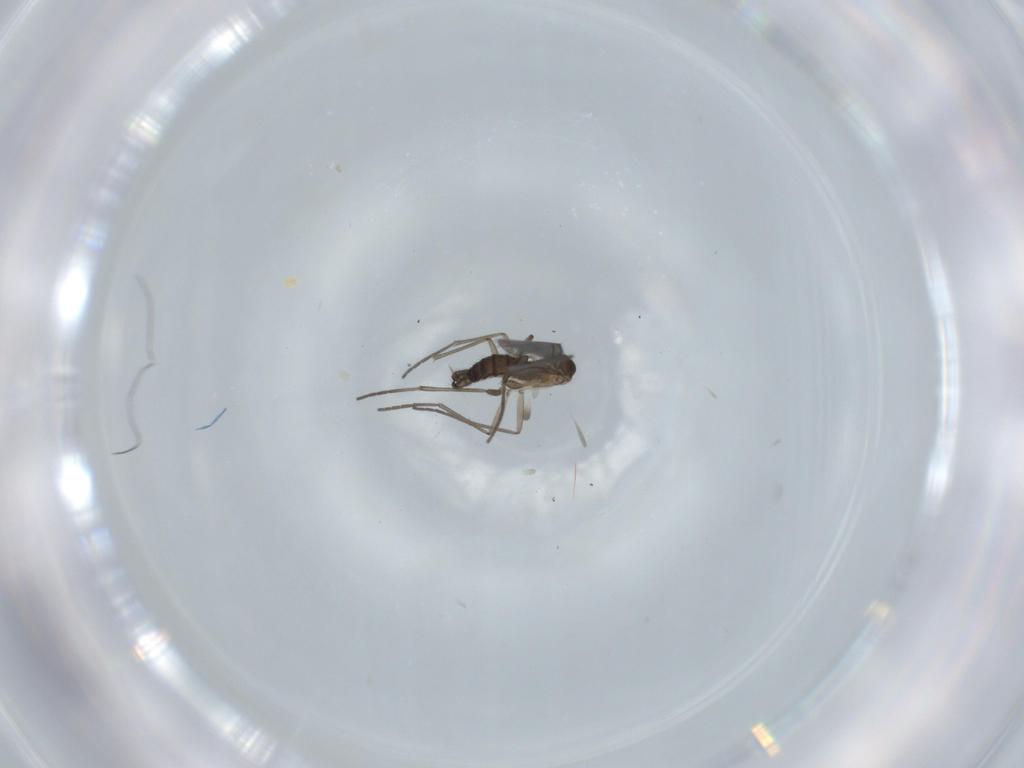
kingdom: Animalia
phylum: Arthropoda
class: Insecta
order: Diptera
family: Sciaridae
